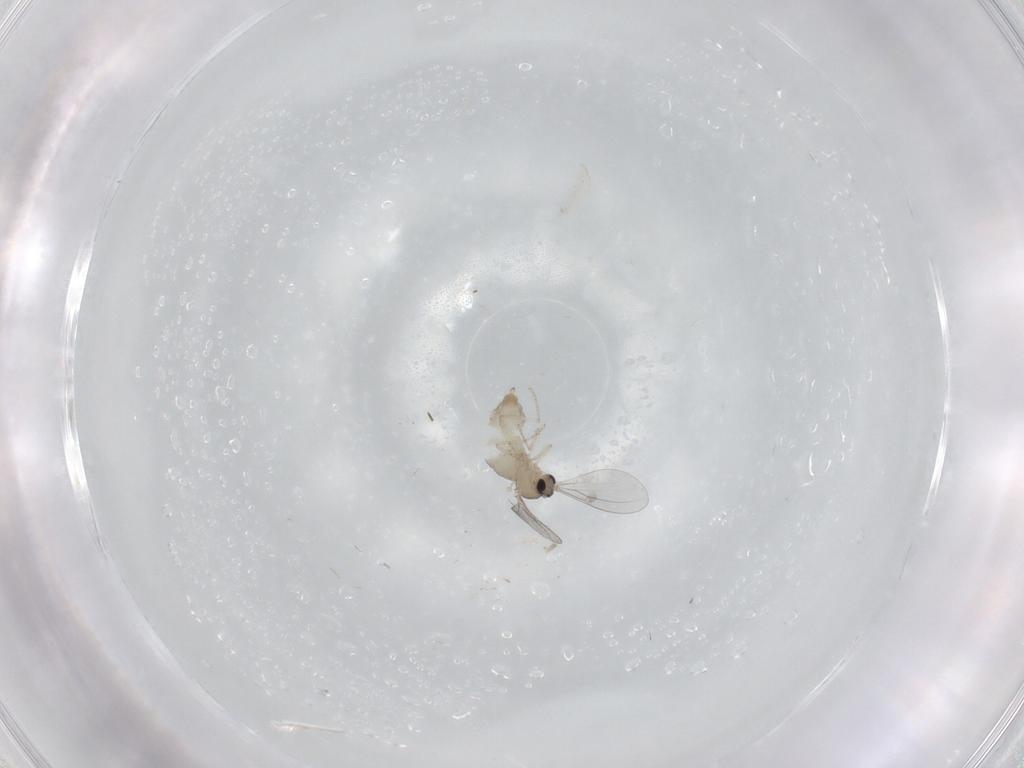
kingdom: Animalia
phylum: Arthropoda
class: Insecta
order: Diptera
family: Cecidomyiidae
